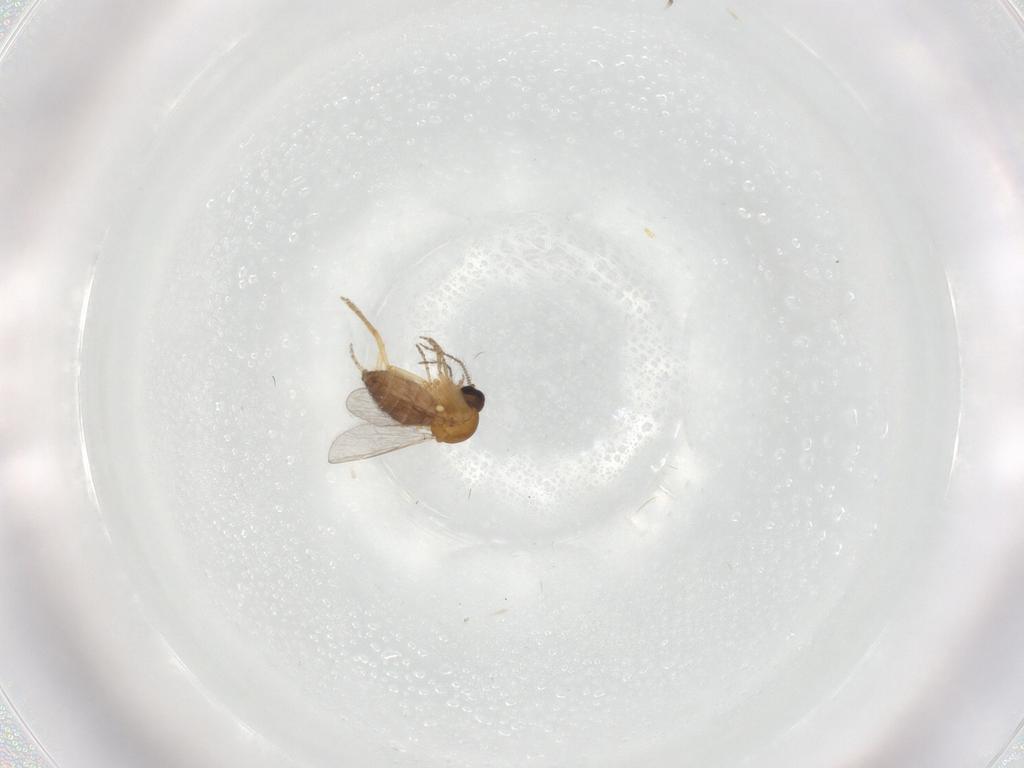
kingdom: Animalia
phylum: Arthropoda
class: Insecta
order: Diptera
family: Ceratopogonidae
